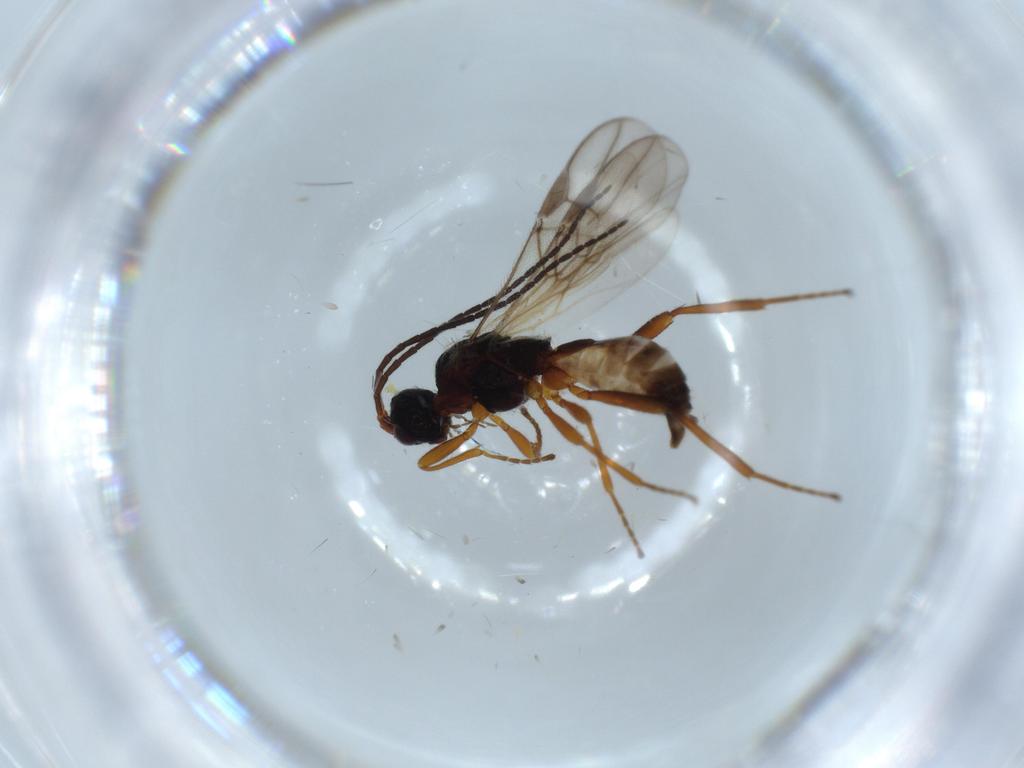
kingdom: Animalia
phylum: Arthropoda
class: Insecta
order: Hymenoptera
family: Braconidae
